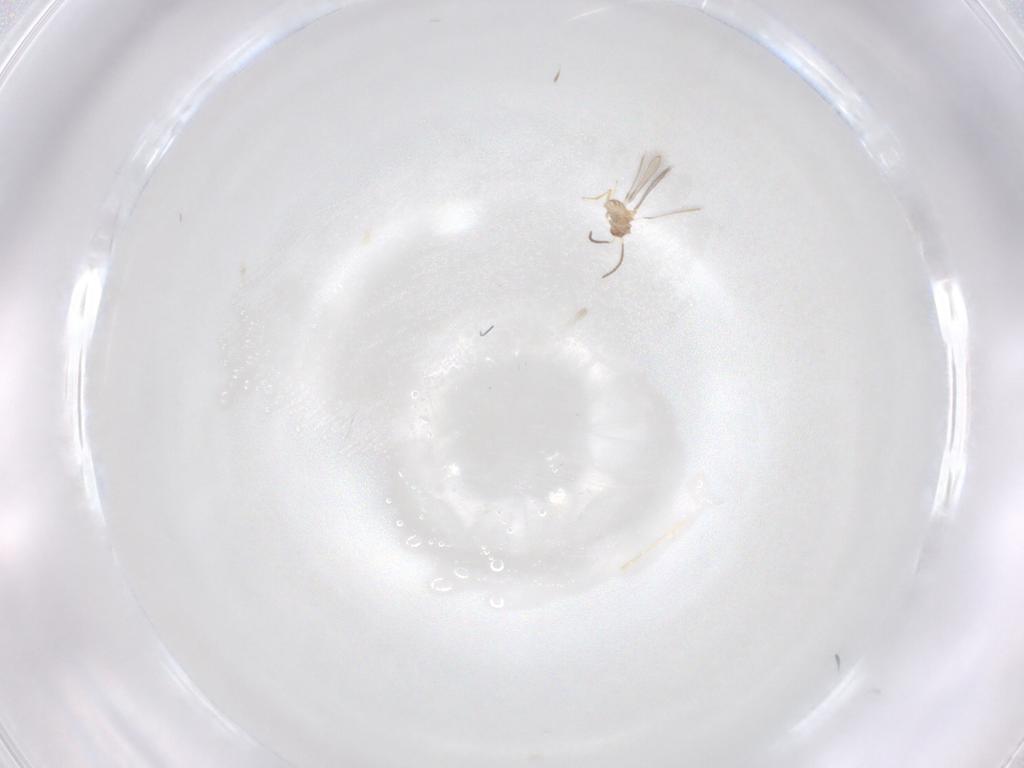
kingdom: Animalia
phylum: Arthropoda
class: Insecta
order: Hymenoptera
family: Mymaridae
